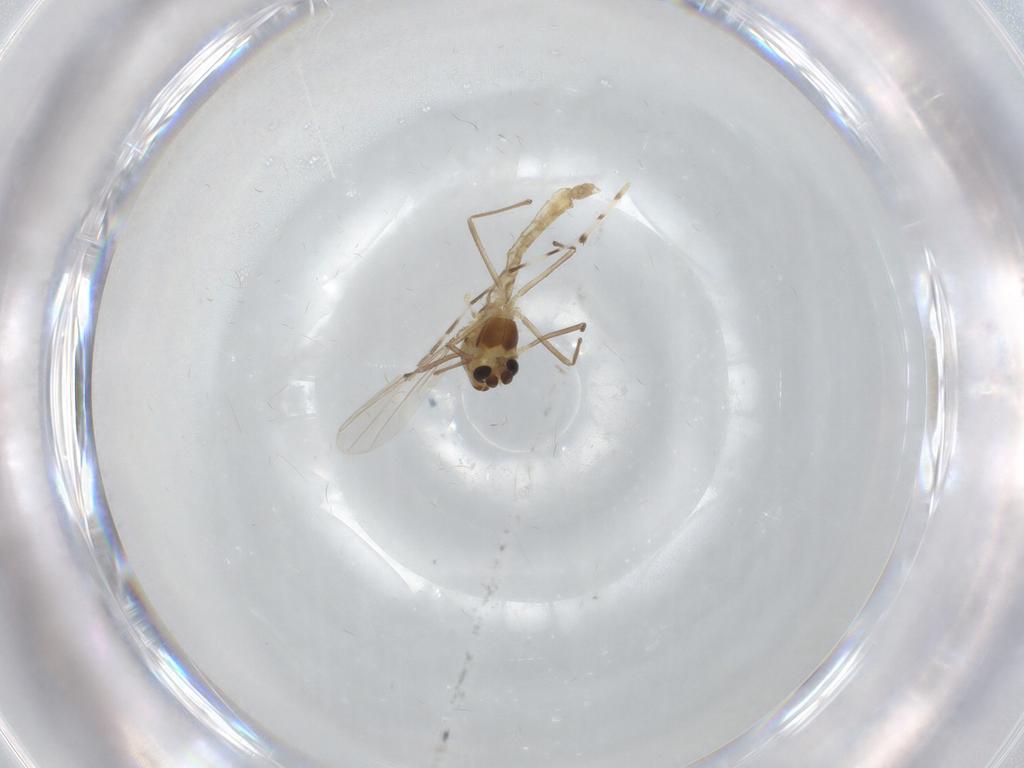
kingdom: Animalia
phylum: Arthropoda
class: Insecta
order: Diptera
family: Chironomidae
